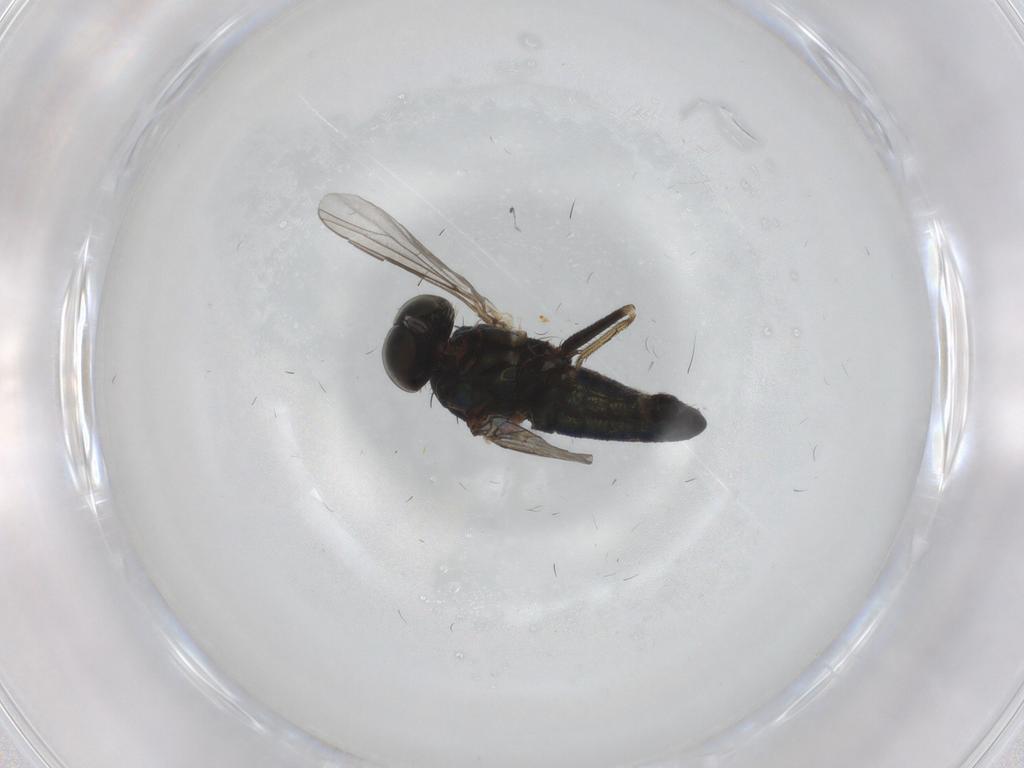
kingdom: Animalia
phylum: Arthropoda
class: Insecta
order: Diptera
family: Dolichopodidae
